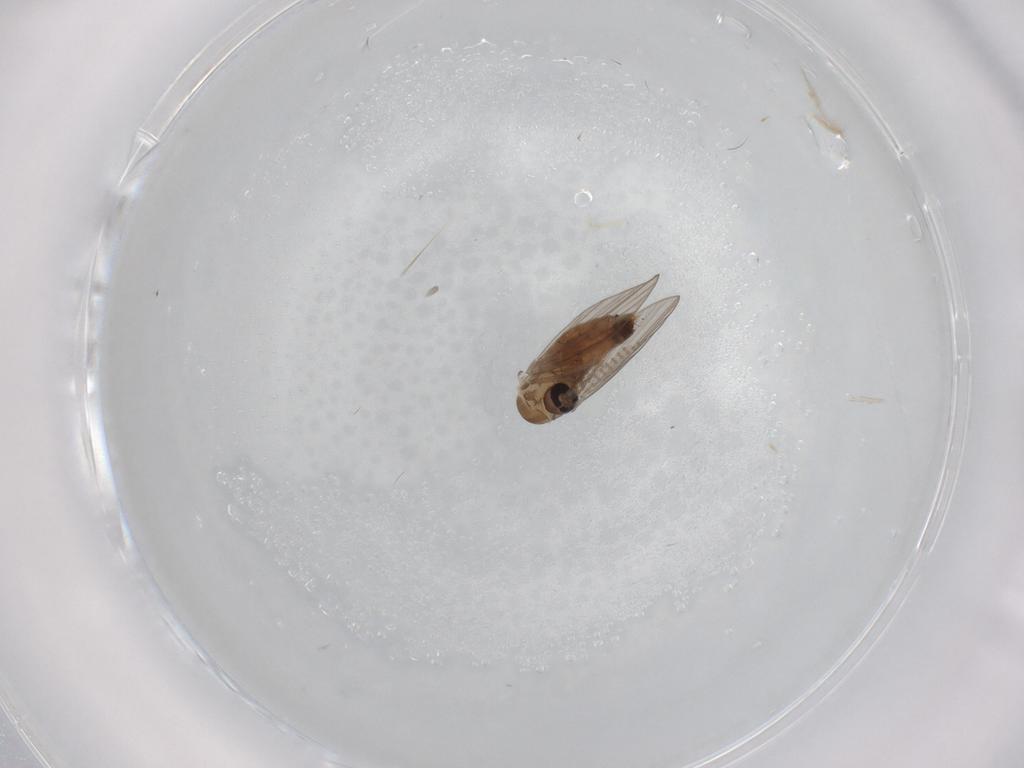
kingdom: Animalia
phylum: Arthropoda
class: Insecta
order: Diptera
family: Psychodidae
